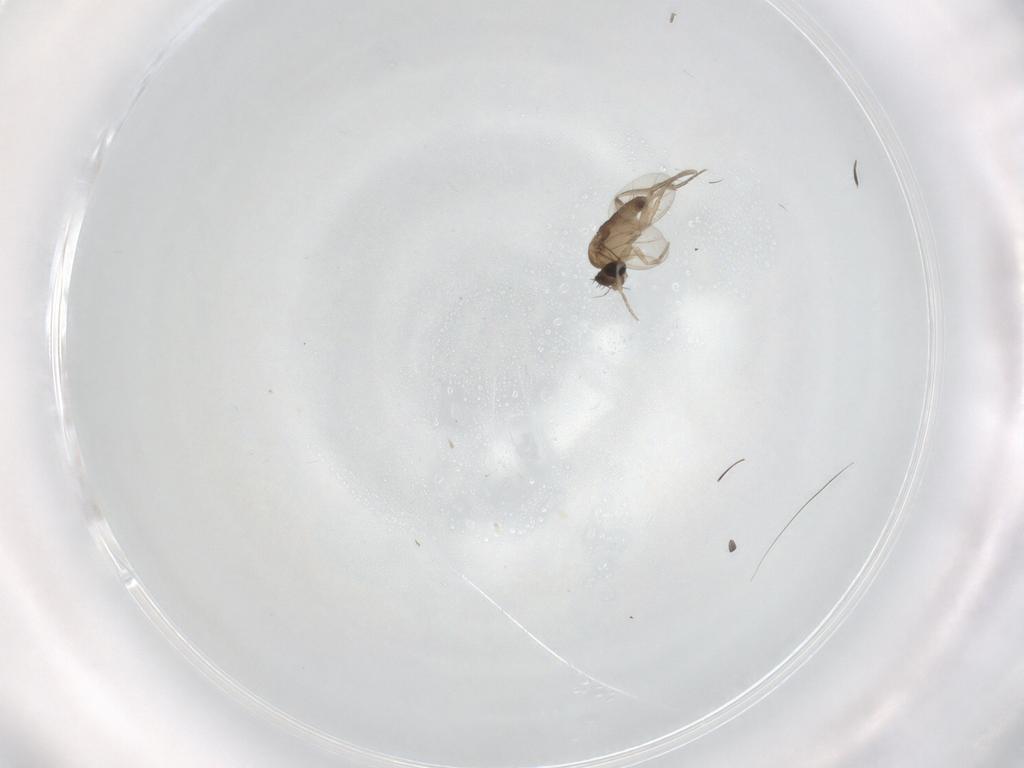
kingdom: Animalia
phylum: Arthropoda
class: Insecta
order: Diptera
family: Phoridae
